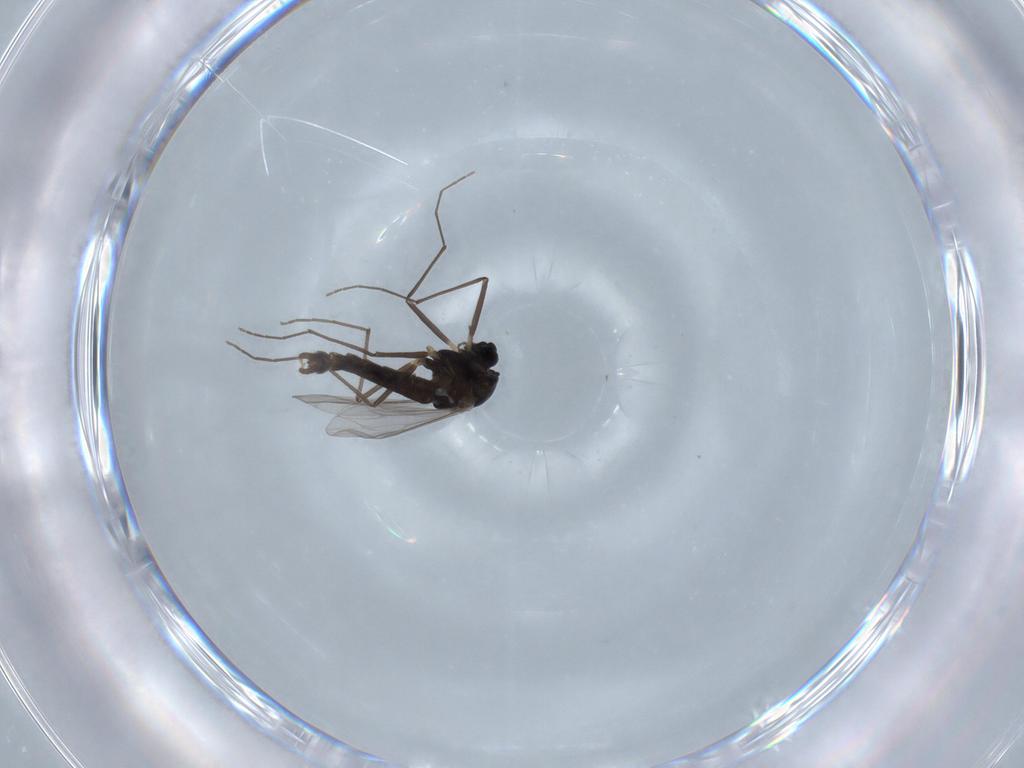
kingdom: Animalia
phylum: Arthropoda
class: Insecta
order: Diptera
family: Chironomidae
